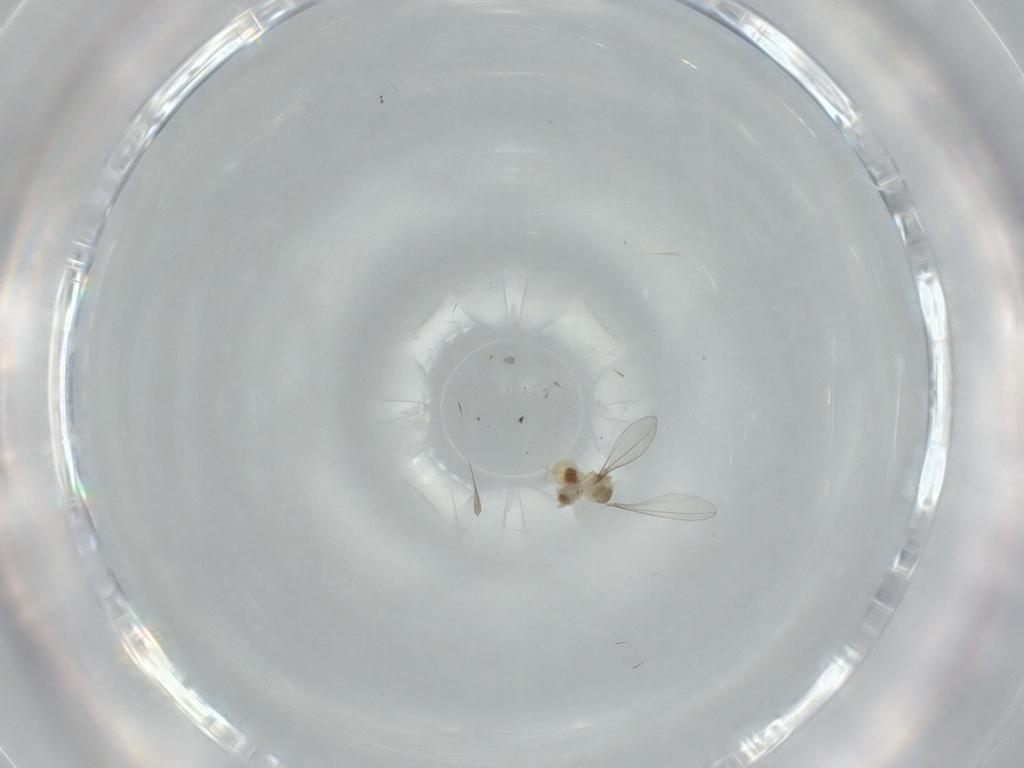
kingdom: Animalia
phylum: Arthropoda
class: Insecta
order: Diptera
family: Cecidomyiidae
